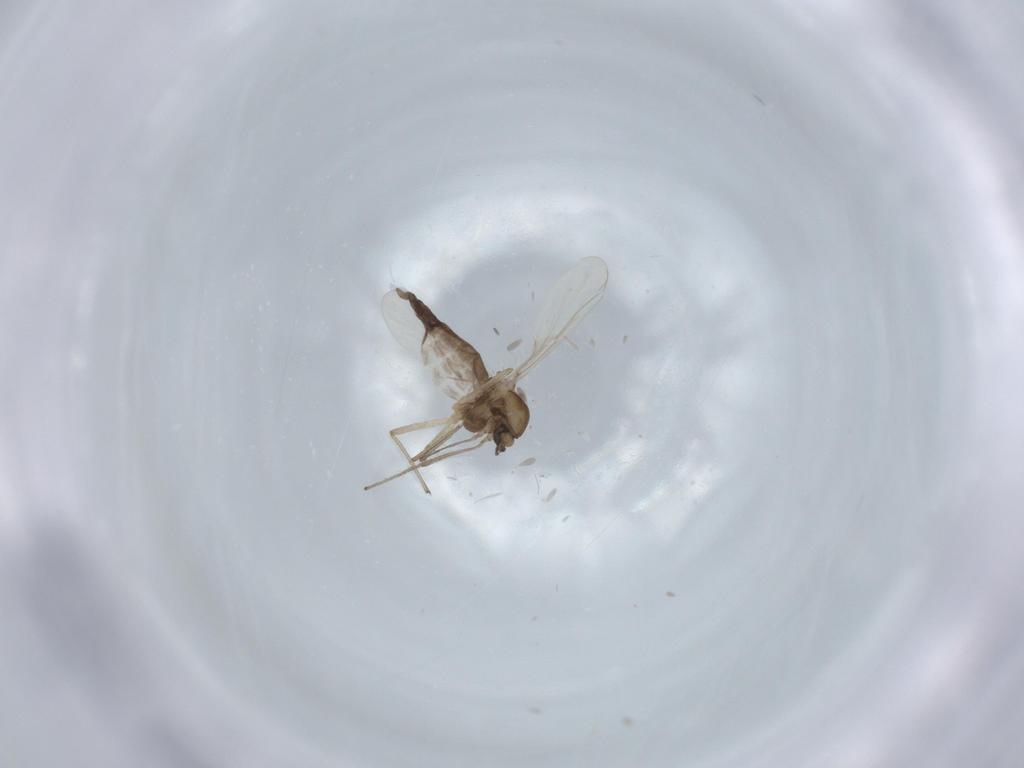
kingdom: Animalia
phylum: Arthropoda
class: Insecta
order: Diptera
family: Chironomidae
